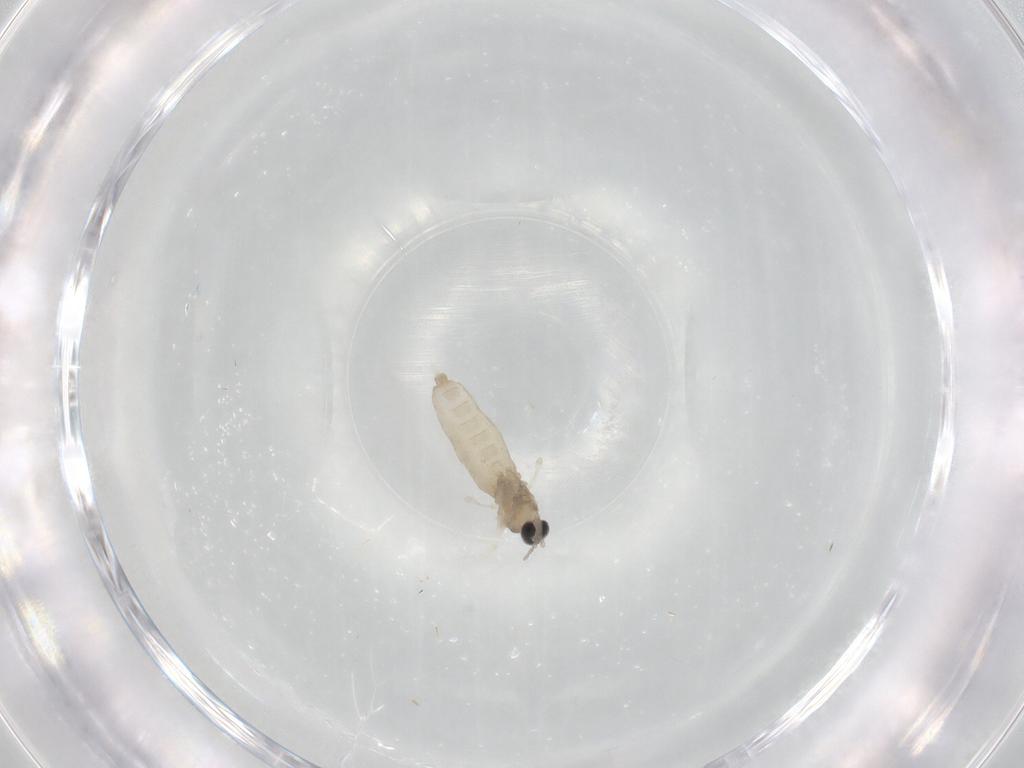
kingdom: Animalia
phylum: Arthropoda
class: Insecta
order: Diptera
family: Cecidomyiidae
